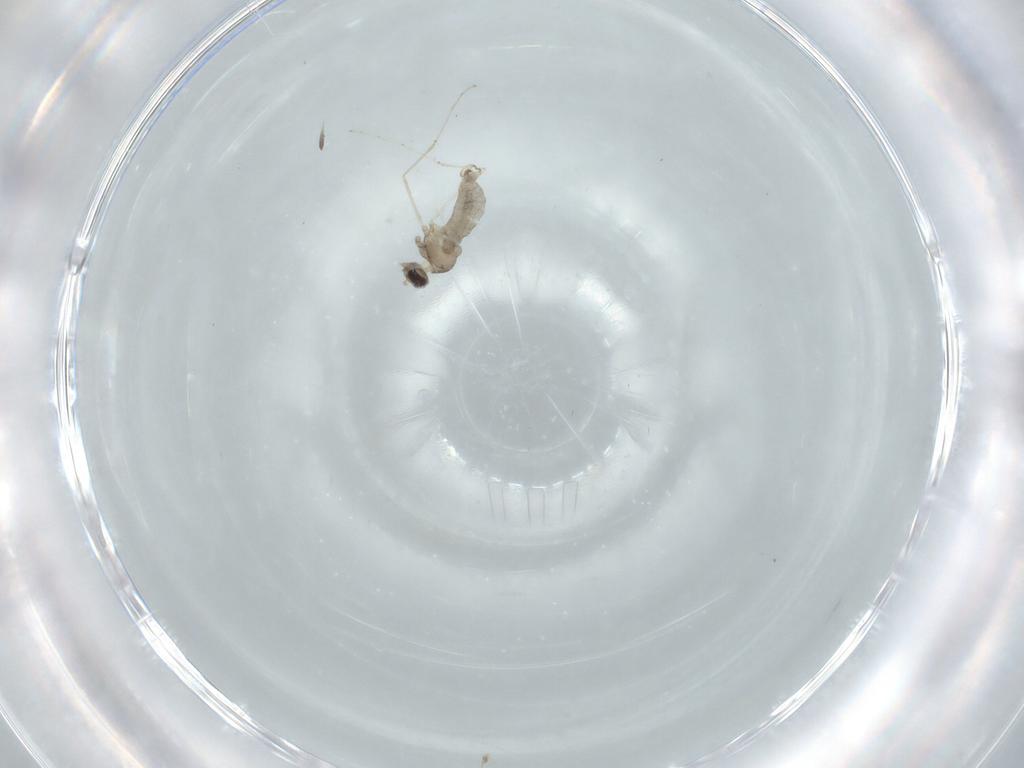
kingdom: Animalia
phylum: Arthropoda
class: Insecta
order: Diptera
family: Cecidomyiidae
